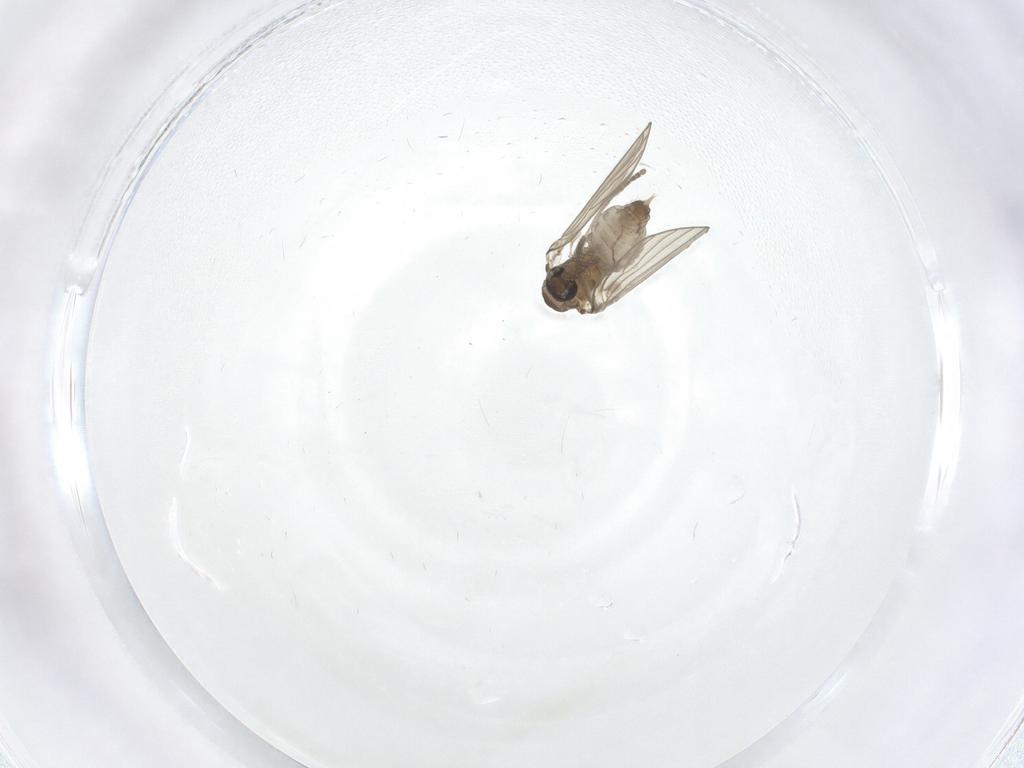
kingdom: Animalia
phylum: Arthropoda
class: Insecta
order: Diptera
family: Psychodidae
